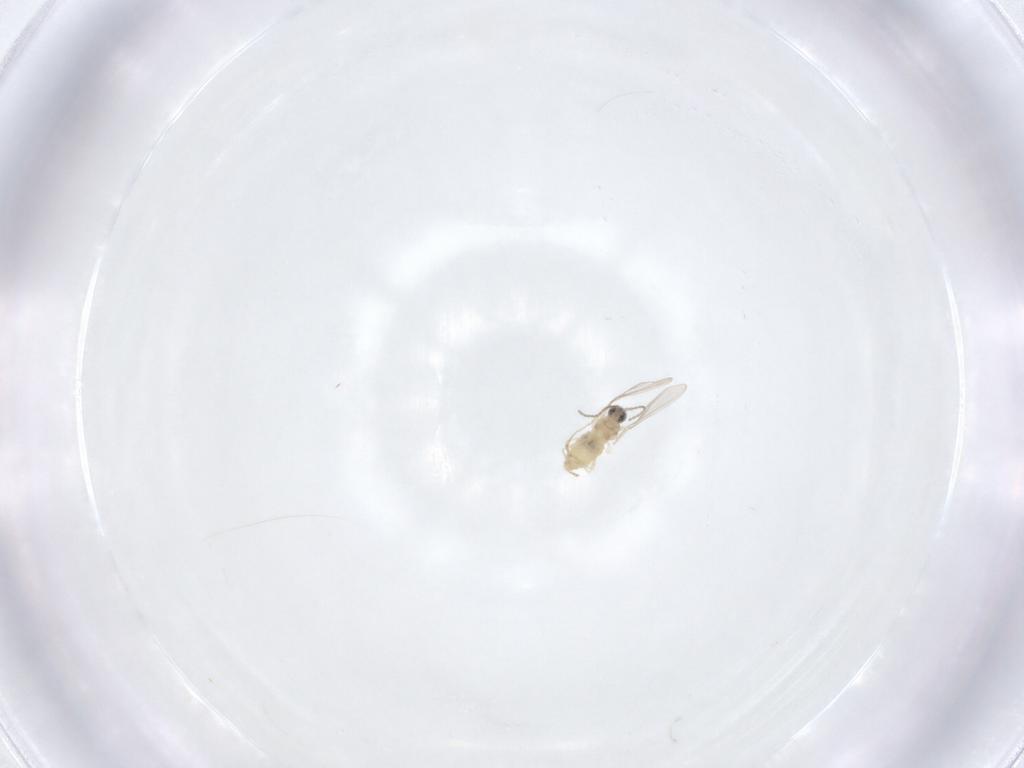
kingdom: Animalia
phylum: Arthropoda
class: Insecta
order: Diptera
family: Cecidomyiidae
